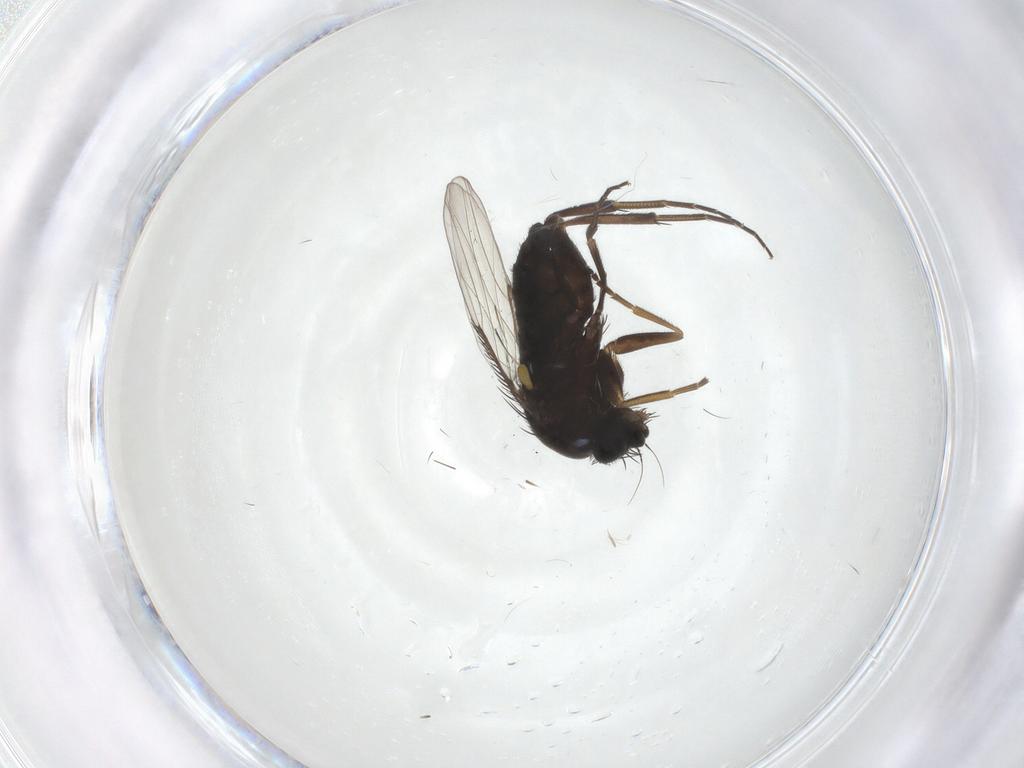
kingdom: Animalia
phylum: Arthropoda
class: Insecta
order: Diptera
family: Phoridae
